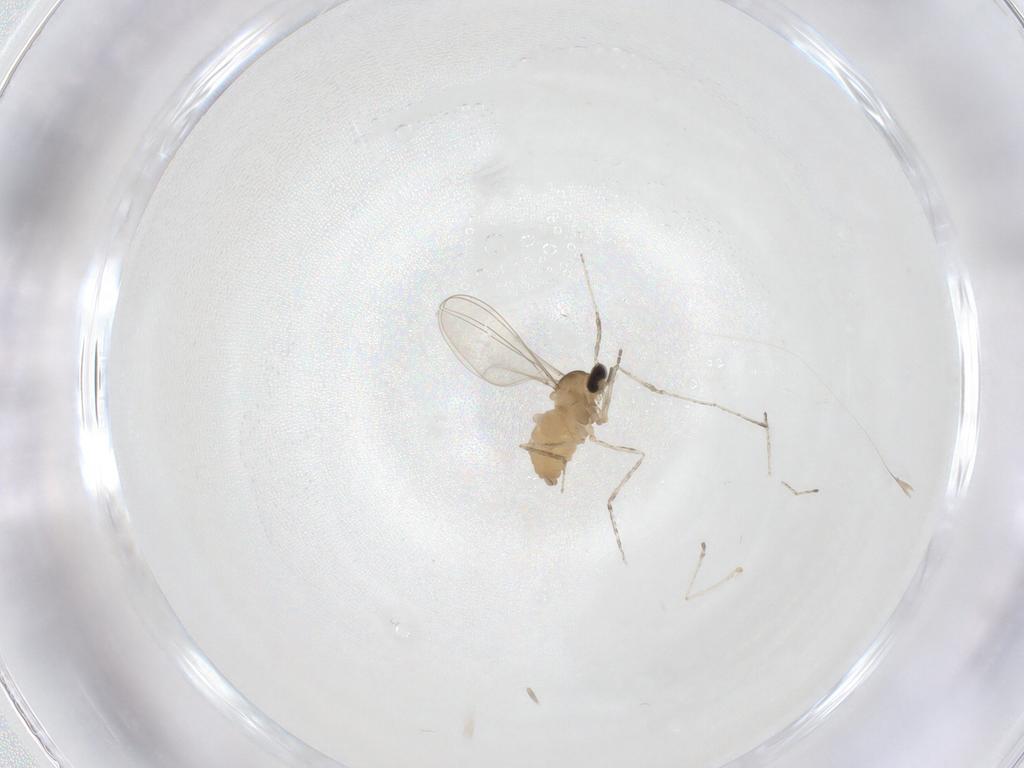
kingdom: Animalia
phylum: Arthropoda
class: Insecta
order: Diptera
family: Cecidomyiidae
